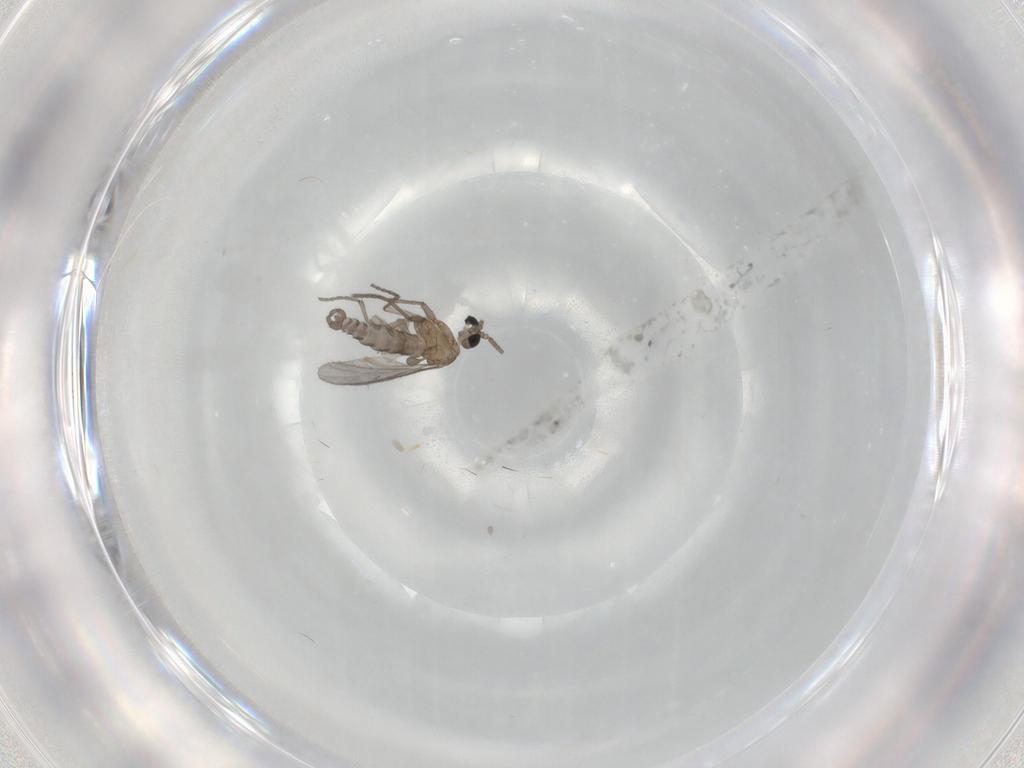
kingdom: Animalia
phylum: Arthropoda
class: Insecta
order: Diptera
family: Sciaridae
